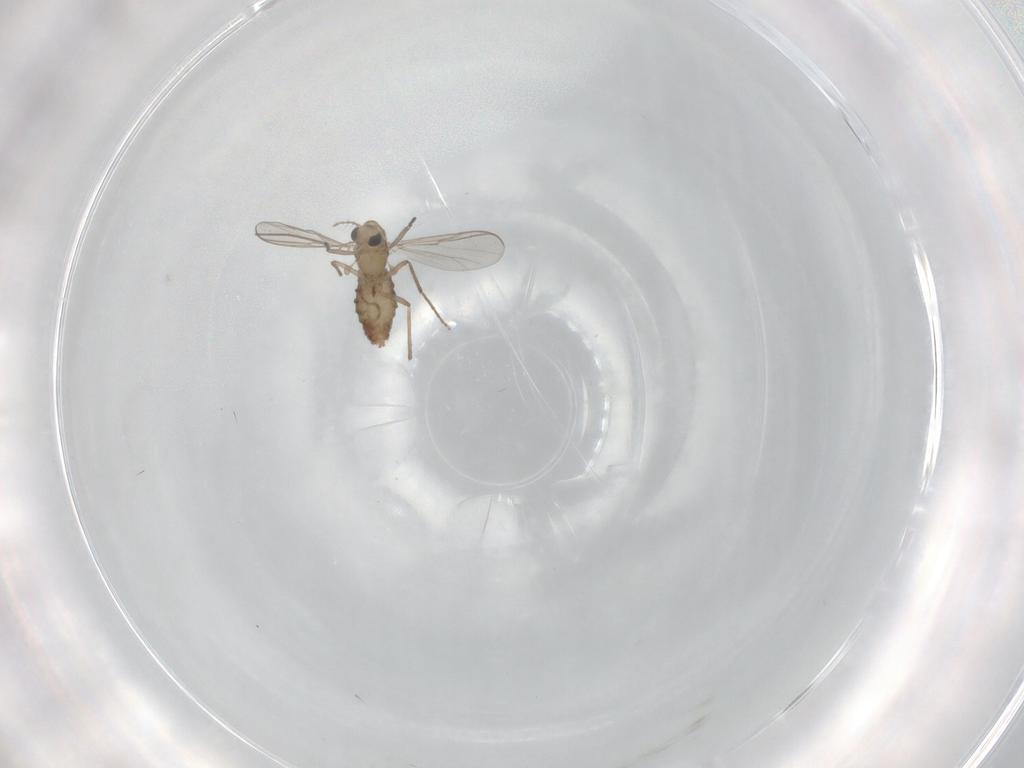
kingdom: Animalia
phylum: Arthropoda
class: Insecta
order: Diptera
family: Chironomidae
